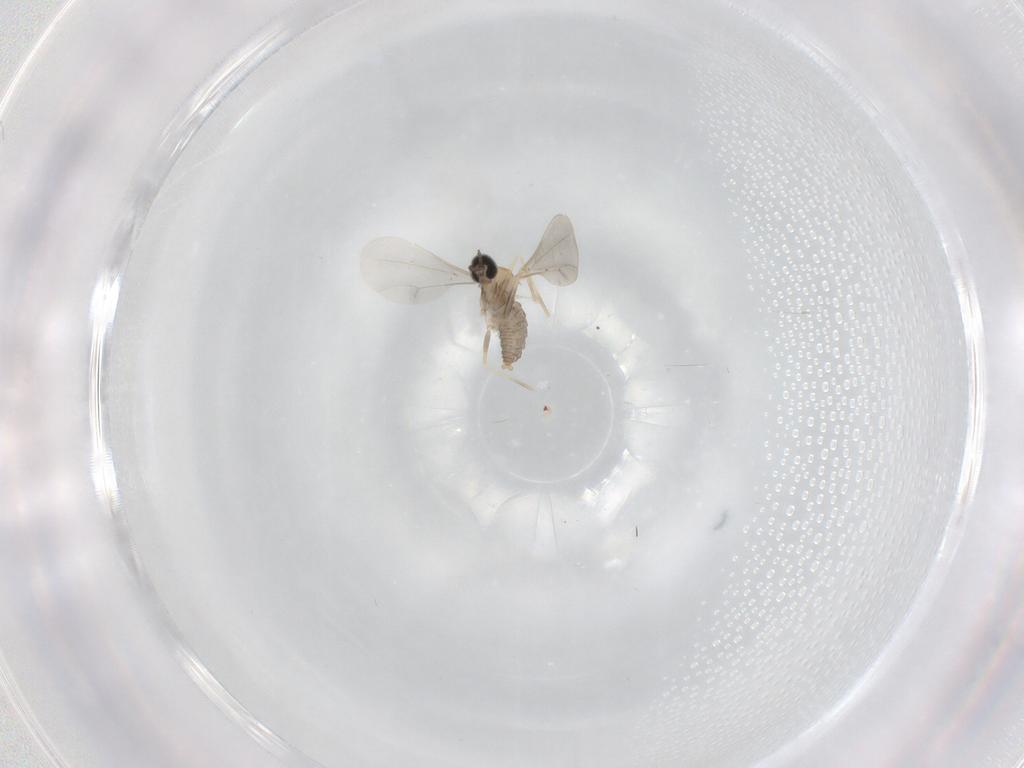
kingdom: Animalia
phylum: Arthropoda
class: Insecta
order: Diptera
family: Cecidomyiidae
